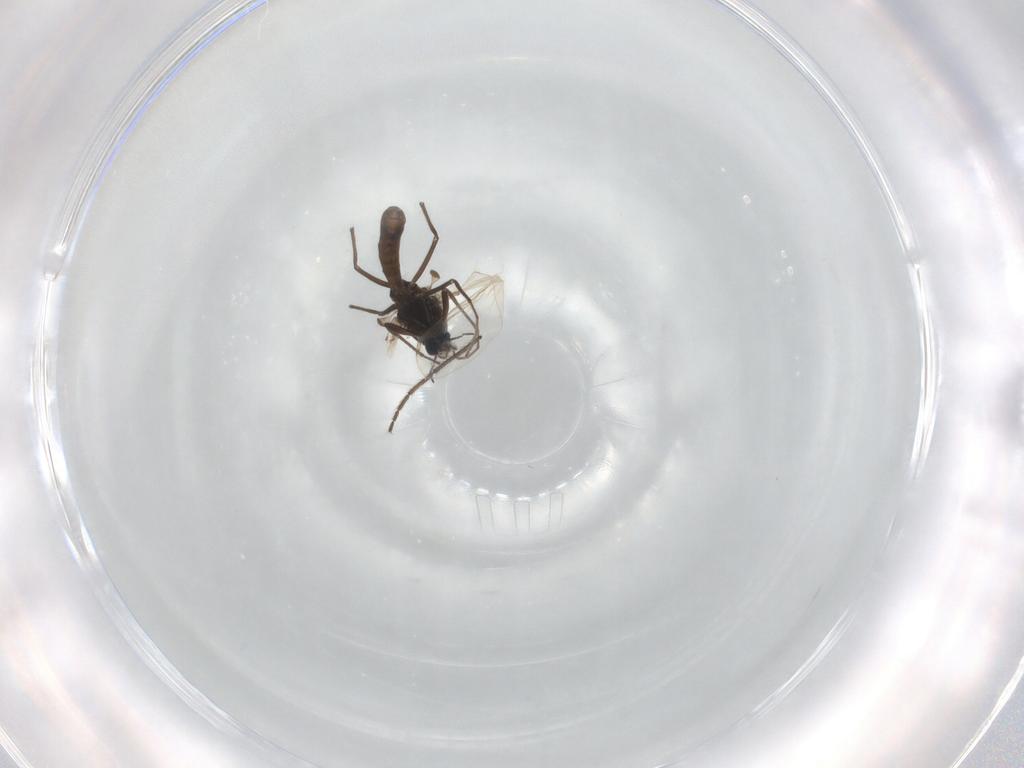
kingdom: Animalia
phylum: Arthropoda
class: Insecta
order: Diptera
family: Chironomidae
